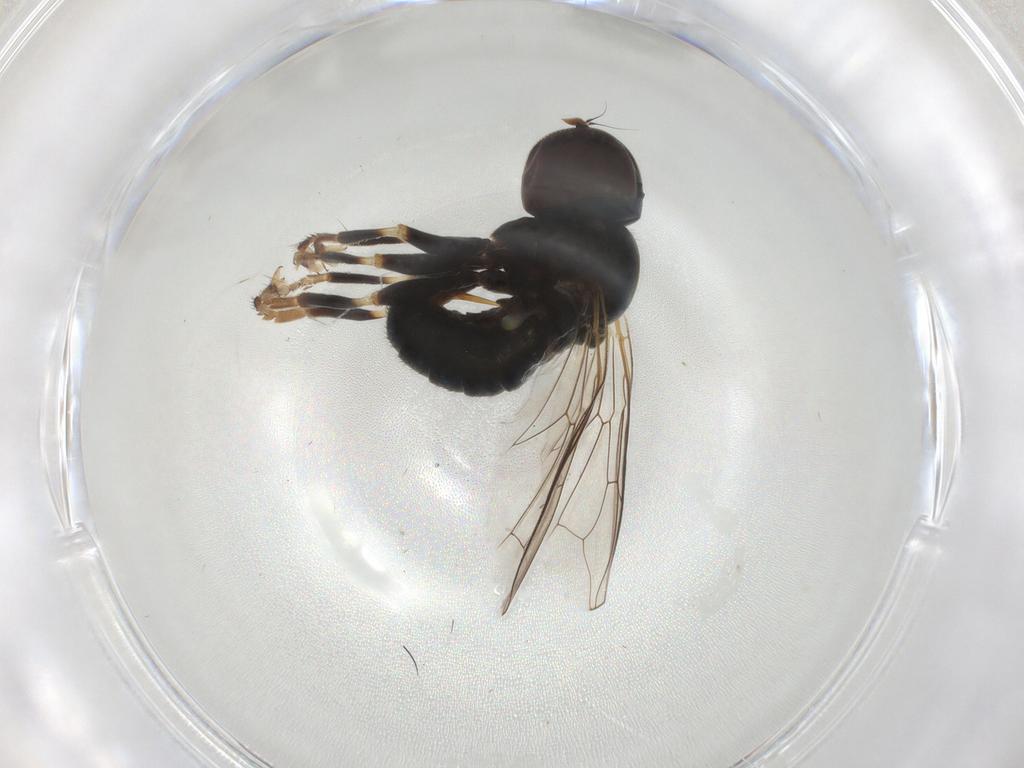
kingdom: Animalia
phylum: Arthropoda
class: Insecta
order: Diptera
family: Pipunculidae
